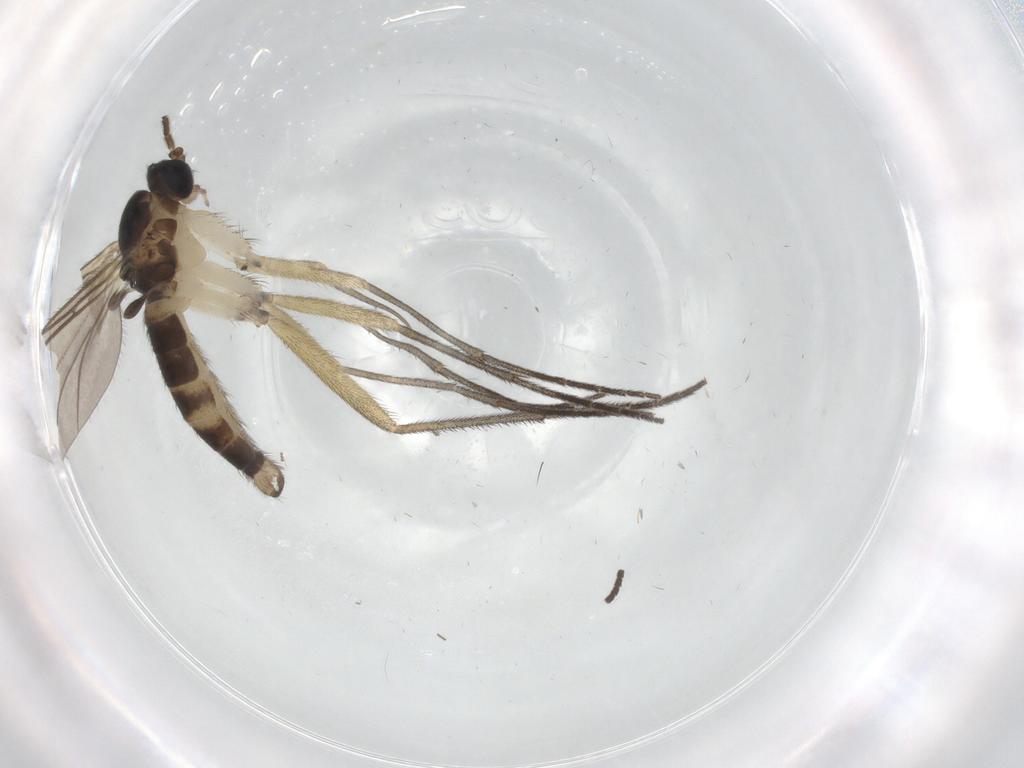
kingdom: Animalia
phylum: Arthropoda
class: Insecta
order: Diptera
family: Sciaridae
